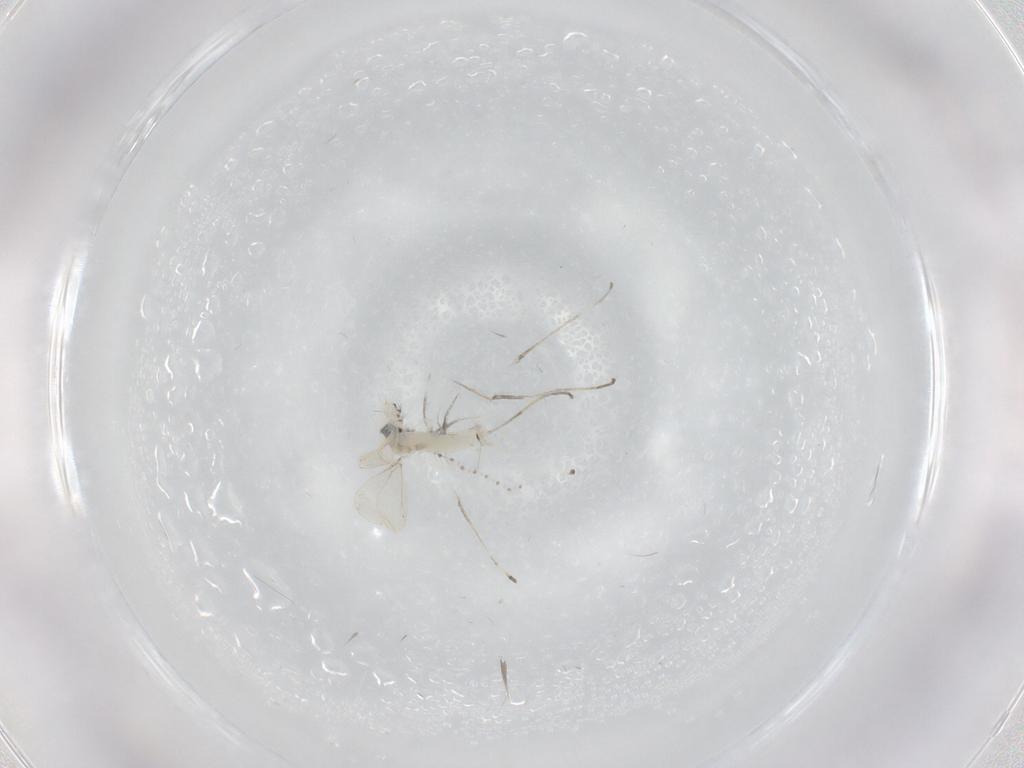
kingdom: Animalia
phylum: Arthropoda
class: Insecta
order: Diptera
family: Cecidomyiidae
